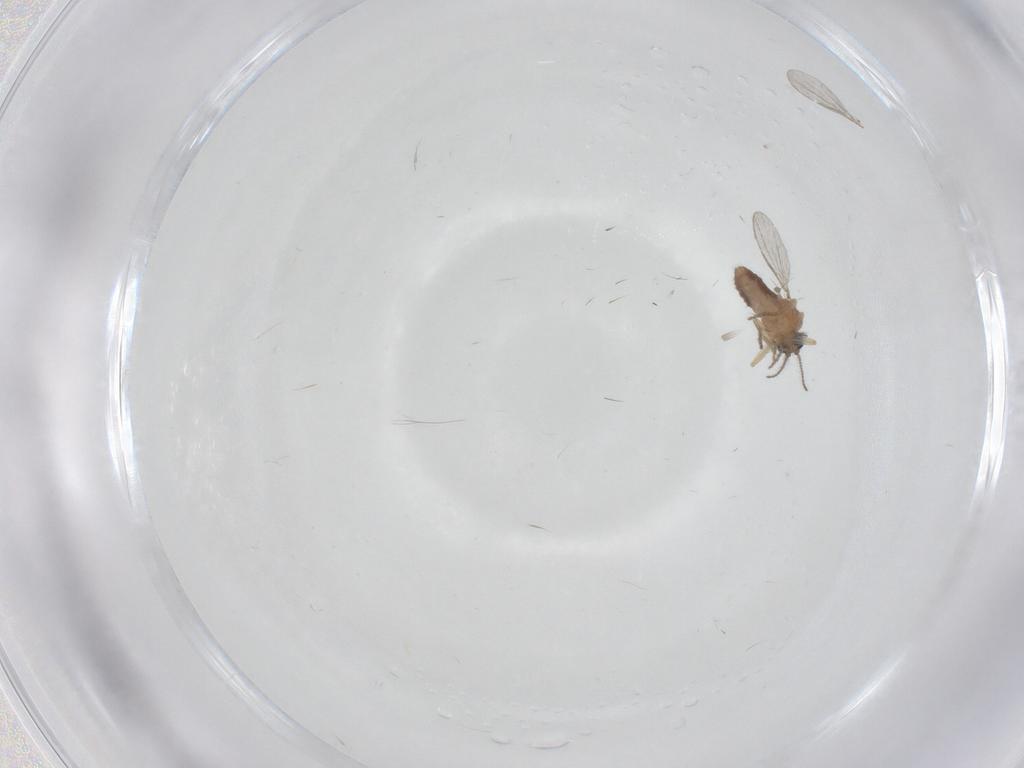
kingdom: Animalia
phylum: Arthropoda
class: Insecta
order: Diptera
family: Ceratopogonidae
